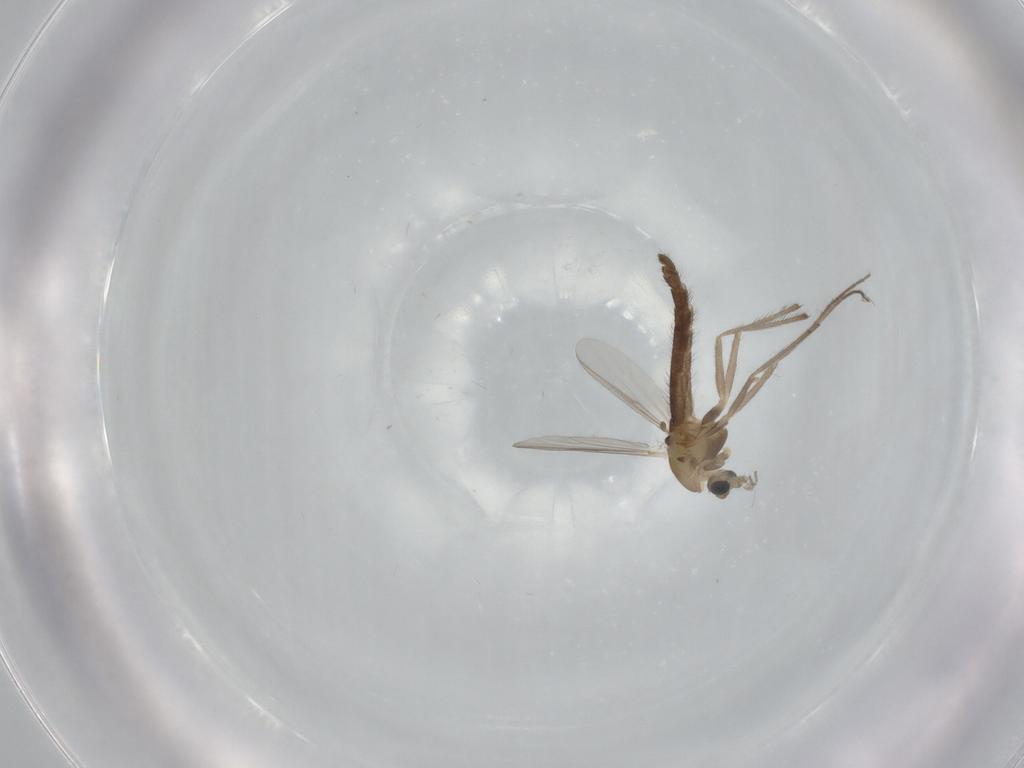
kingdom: Animalia
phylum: Arthropoda
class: Insecta
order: Diptera
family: Chironomidae
